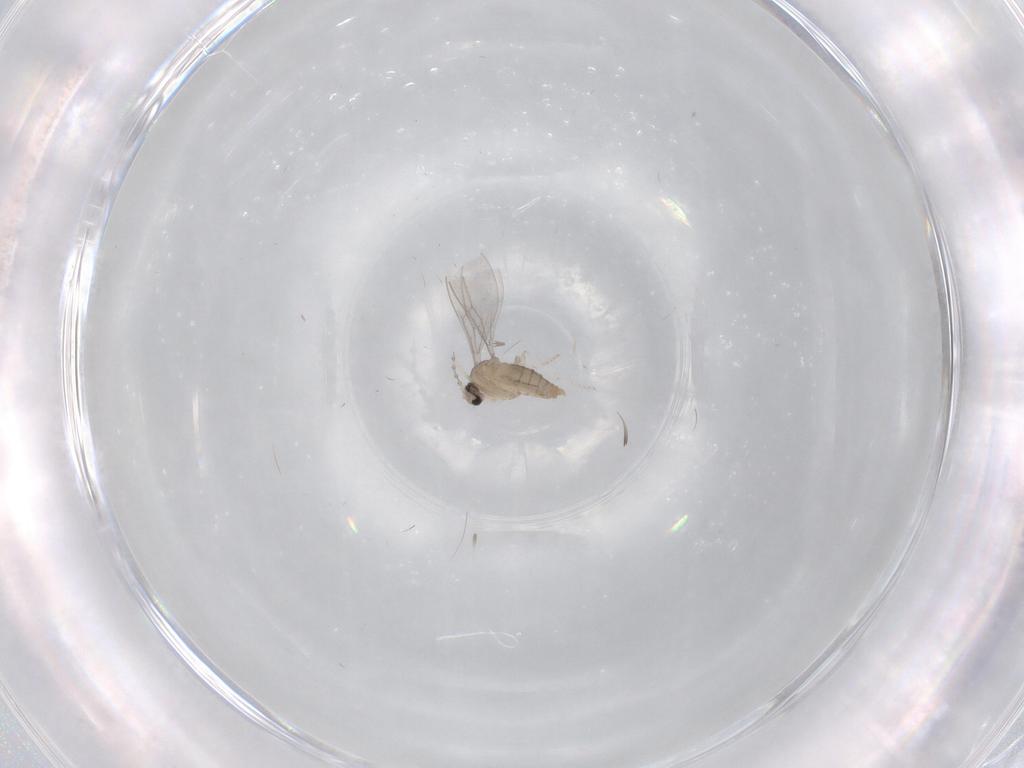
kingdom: Animalia
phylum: Arthropoda
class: Insecta
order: Diptera
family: Cecidomyiidae
